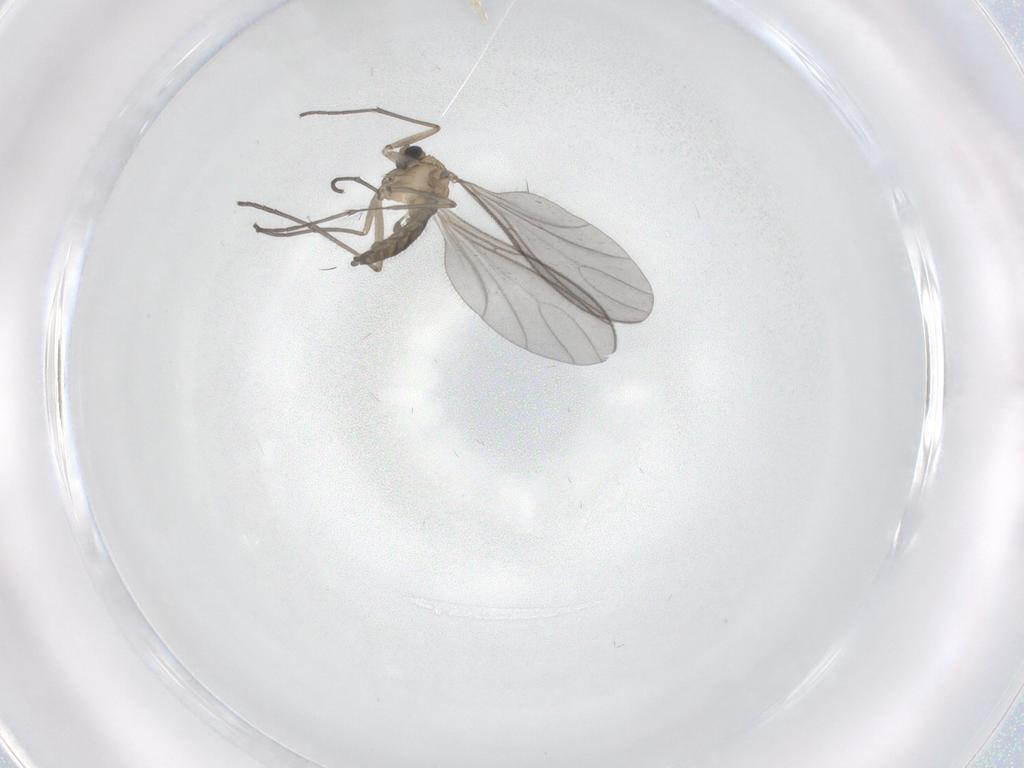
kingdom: Animalia
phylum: Arthropoda
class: Insecta
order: Diptera
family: Sciaridae
